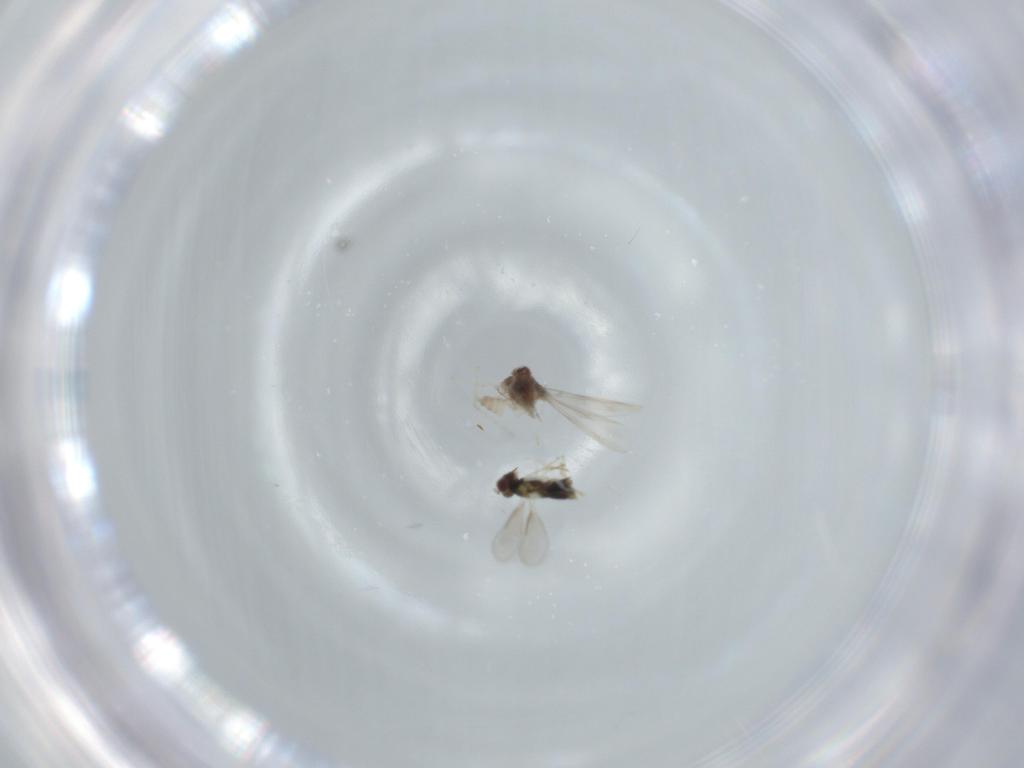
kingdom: Animalia
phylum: Arthropoda
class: Insecta
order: Diptera
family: Cecidomyiidae
